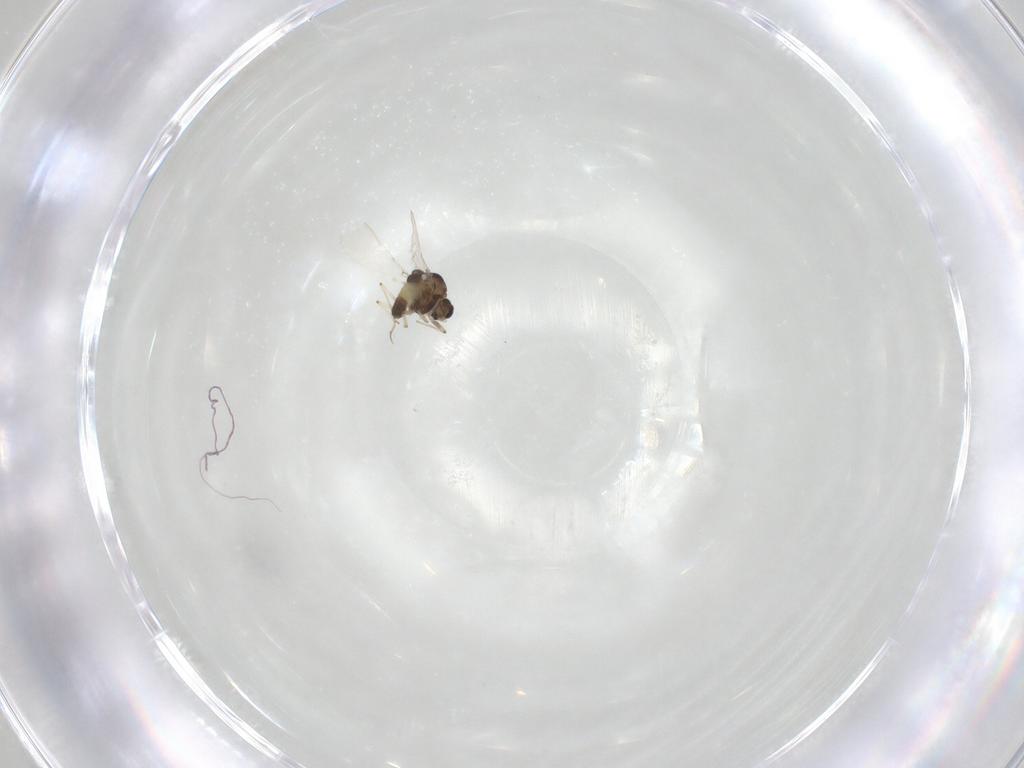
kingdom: Animalia
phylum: Arthropoda
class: Insecta
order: Diptera
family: Chironomidae
